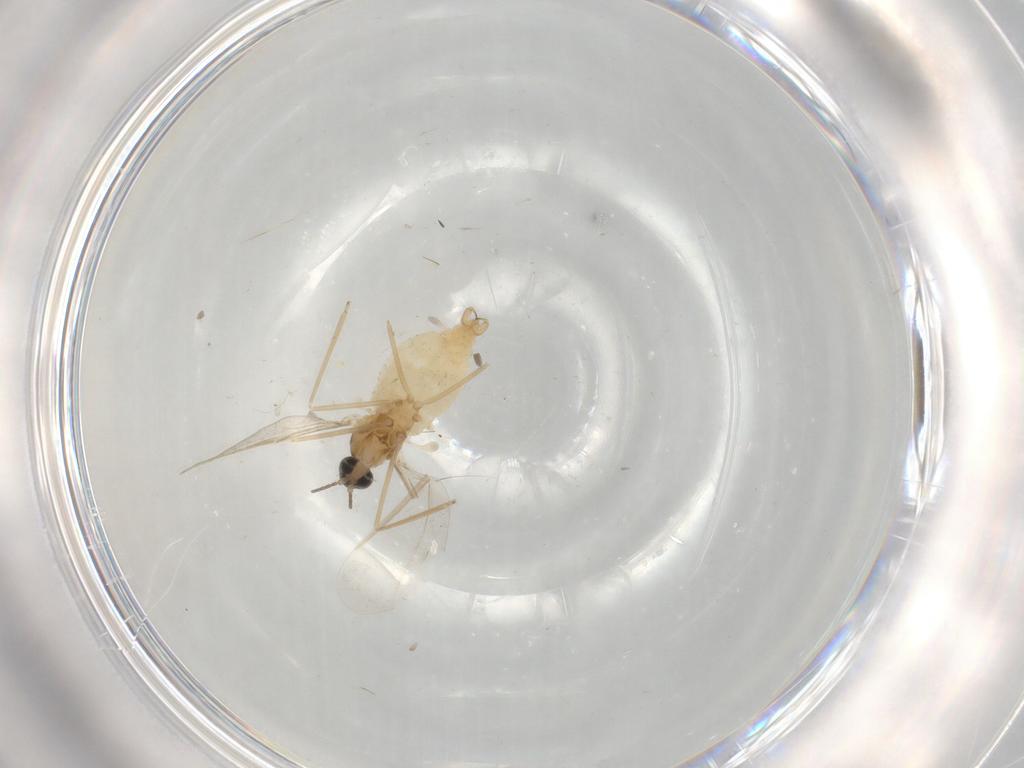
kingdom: Animalia
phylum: Arthropoda
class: Insecta
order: Diptera
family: Cecidomyiidae
